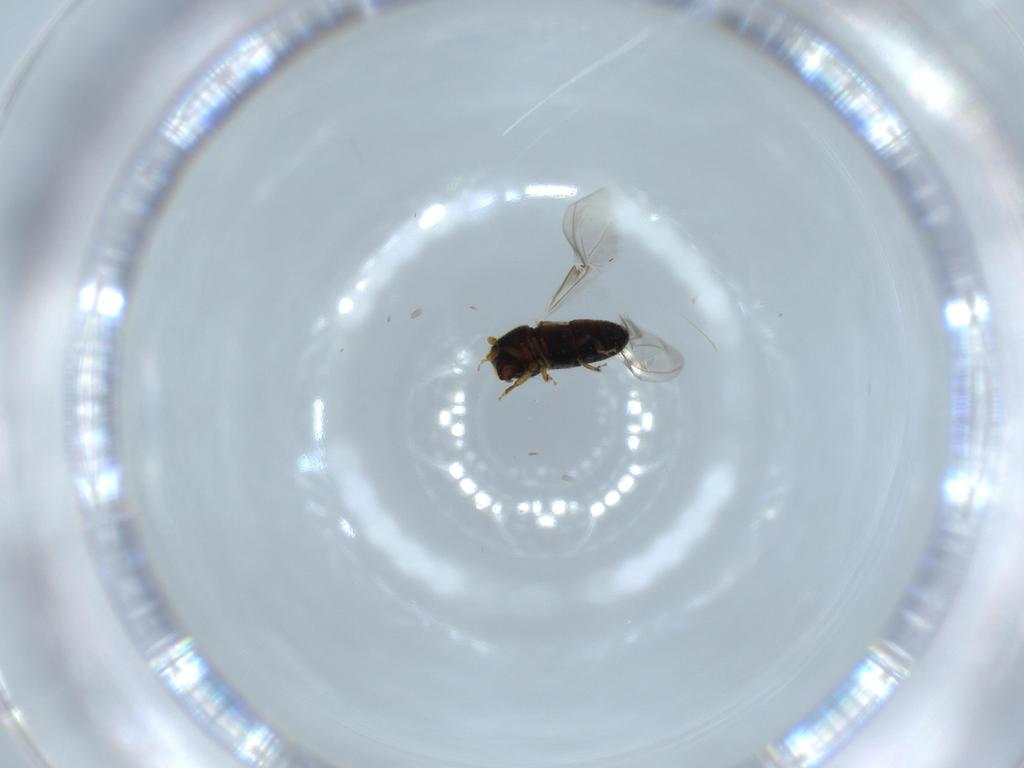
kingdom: Animalia
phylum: Arthropoda
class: Insecta
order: Coleoptera
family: Curculionidae
